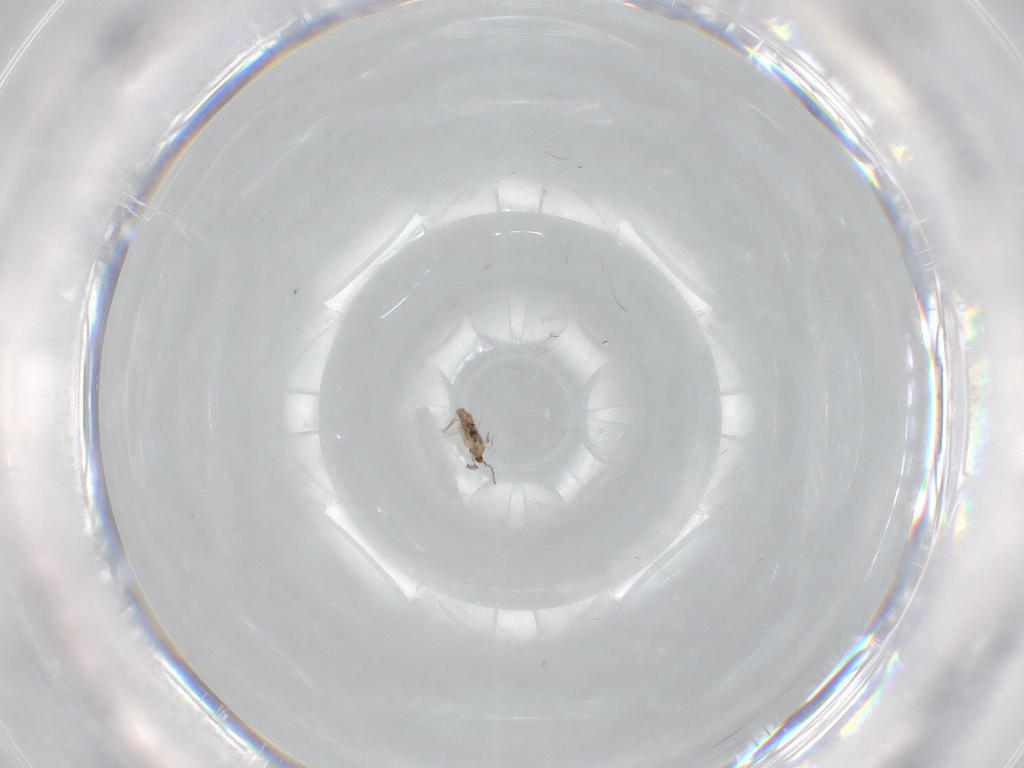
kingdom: Animalia
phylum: Arthropoda
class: Insecta
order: Diptera
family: Cecidomyiidae
